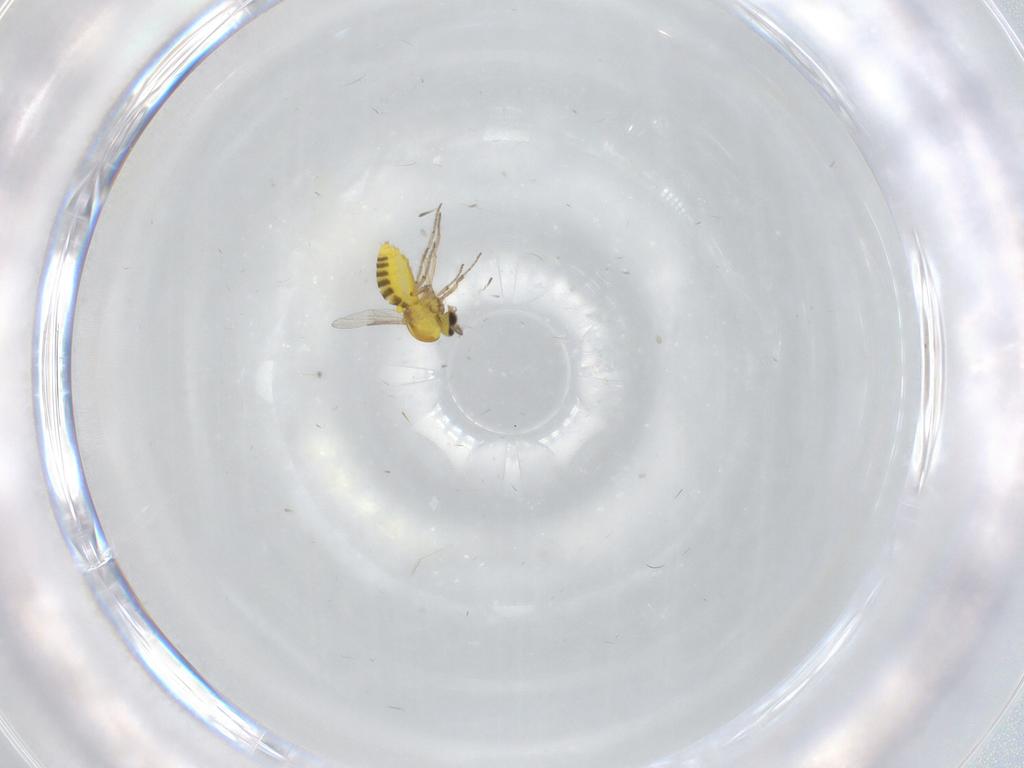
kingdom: Animalia
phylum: Arthropoda
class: Insecta
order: Diptera
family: Ceratopogonidae
